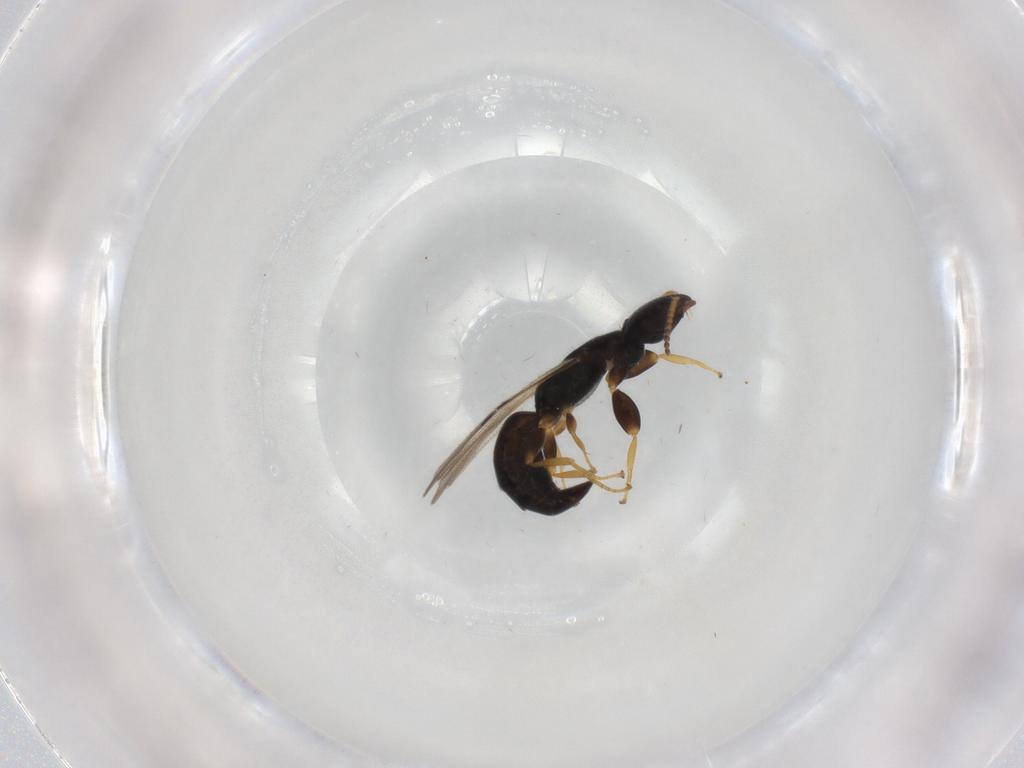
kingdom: Animalia
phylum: Arthropoda
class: Insecta
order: Hymenoptera
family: Bethylidae
